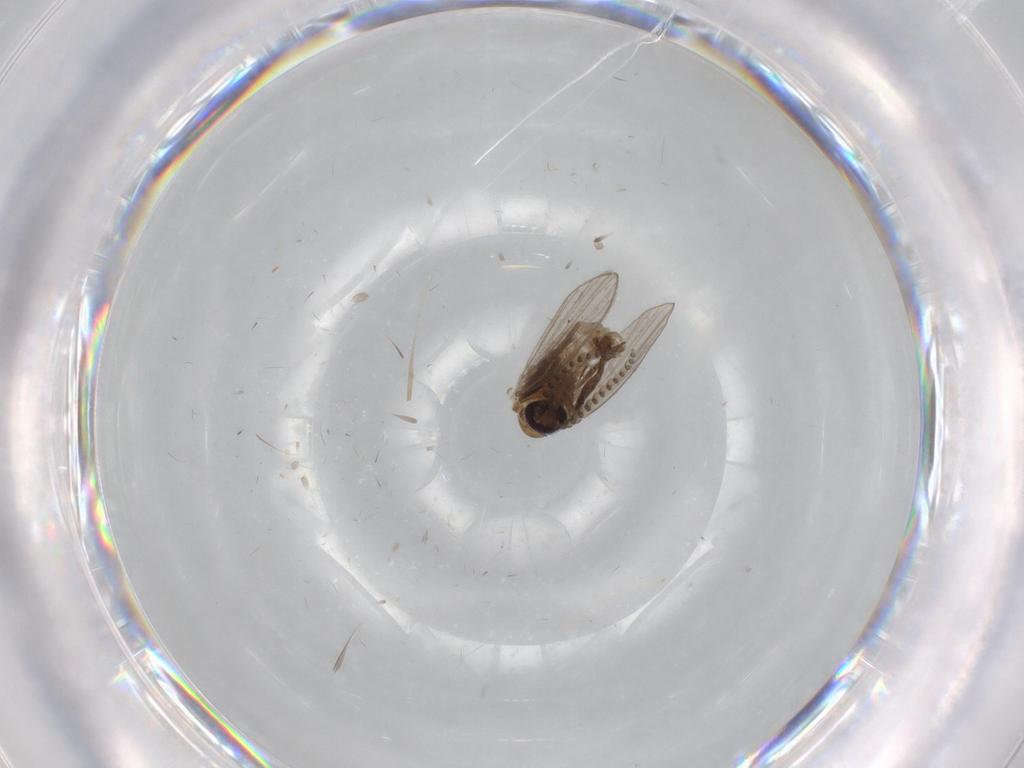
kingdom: Animalia
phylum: Arthropoda
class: Insecta
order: Diptera
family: Psychodidae
